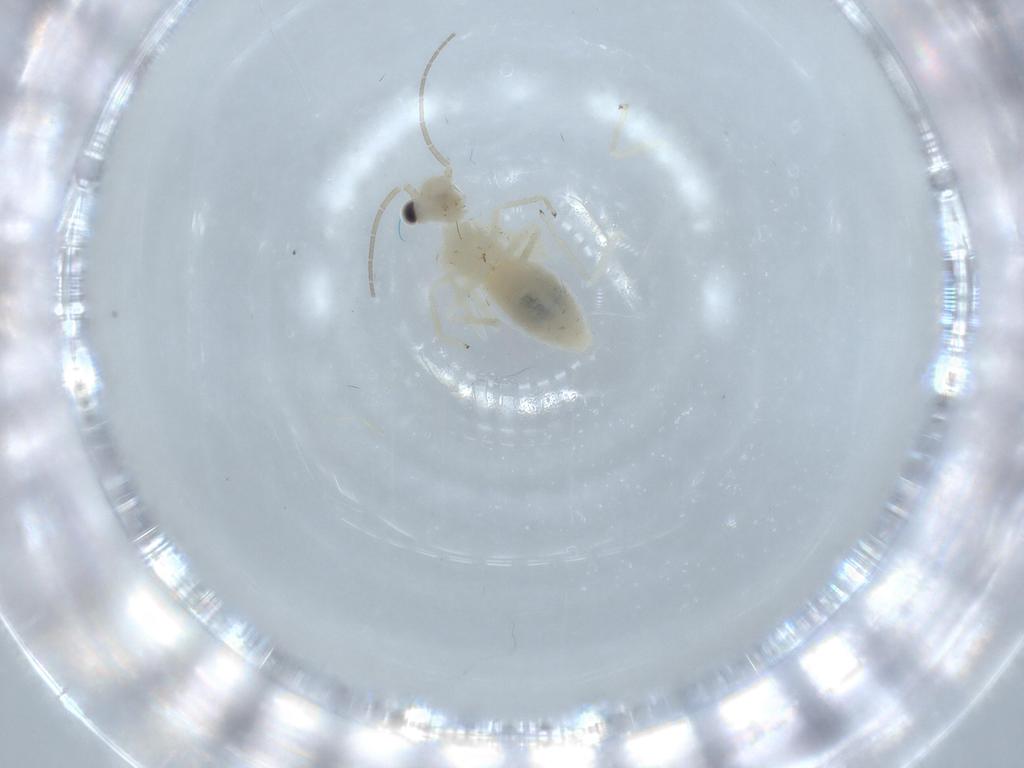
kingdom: Animalia
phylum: Arthropoda
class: Insecta
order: Psocodea
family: Caeciliusidae
